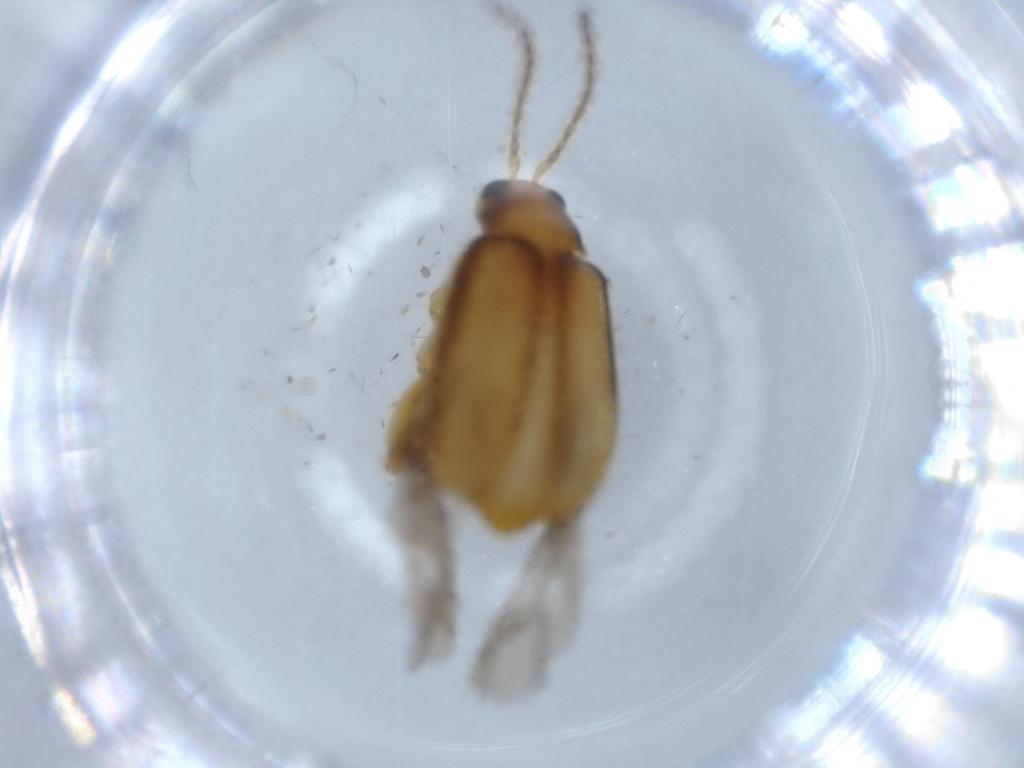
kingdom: Animalia
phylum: Arthropoda
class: Insecta
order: Coleoptera
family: Chrysomelidae
